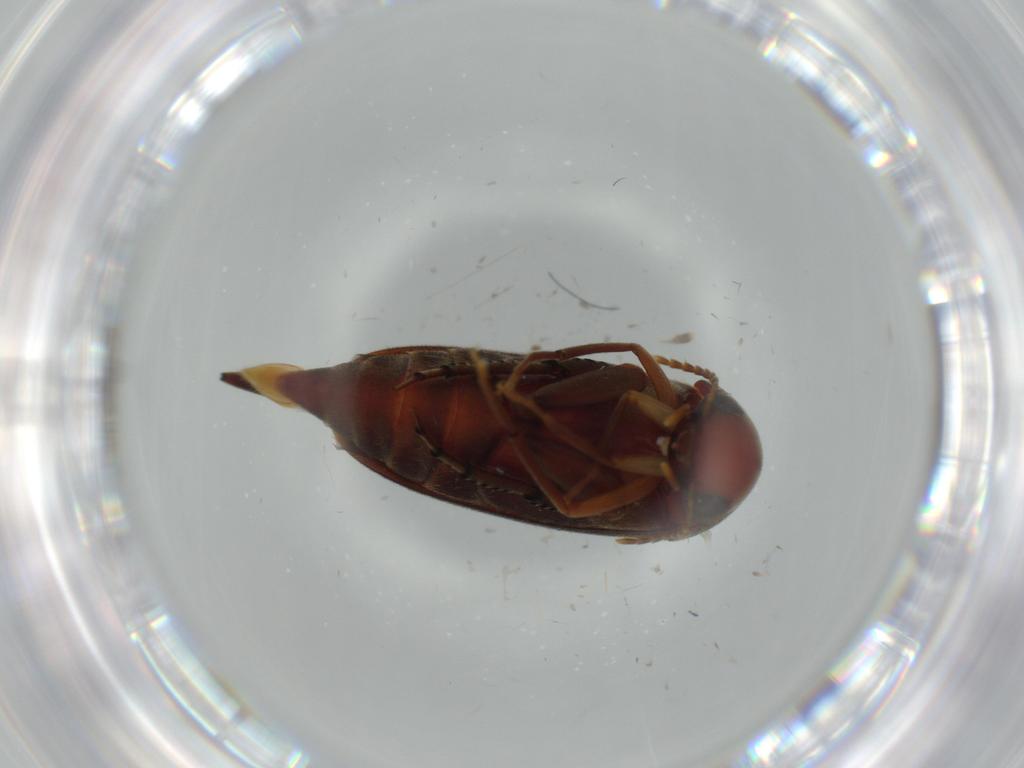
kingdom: Animalia
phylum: Arthropoda
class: Insecta
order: Coleoptera
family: Mordellidae
